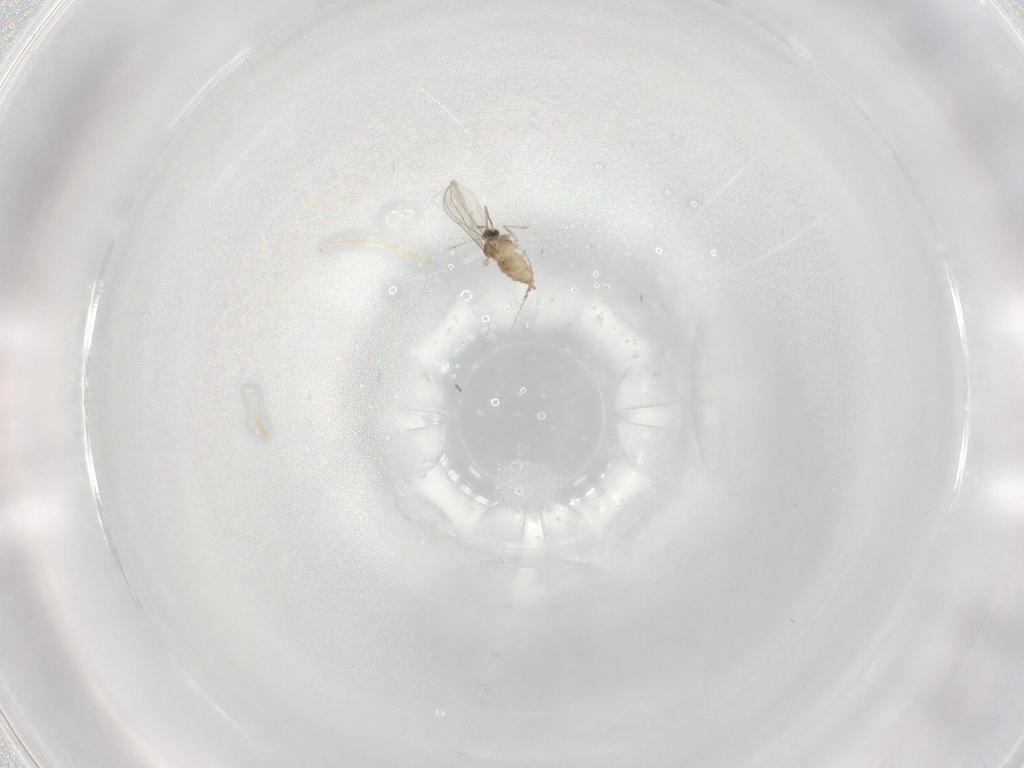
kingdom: Animalia
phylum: Arthropoda
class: Insecta
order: Diptera
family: Cecidomyiidae
